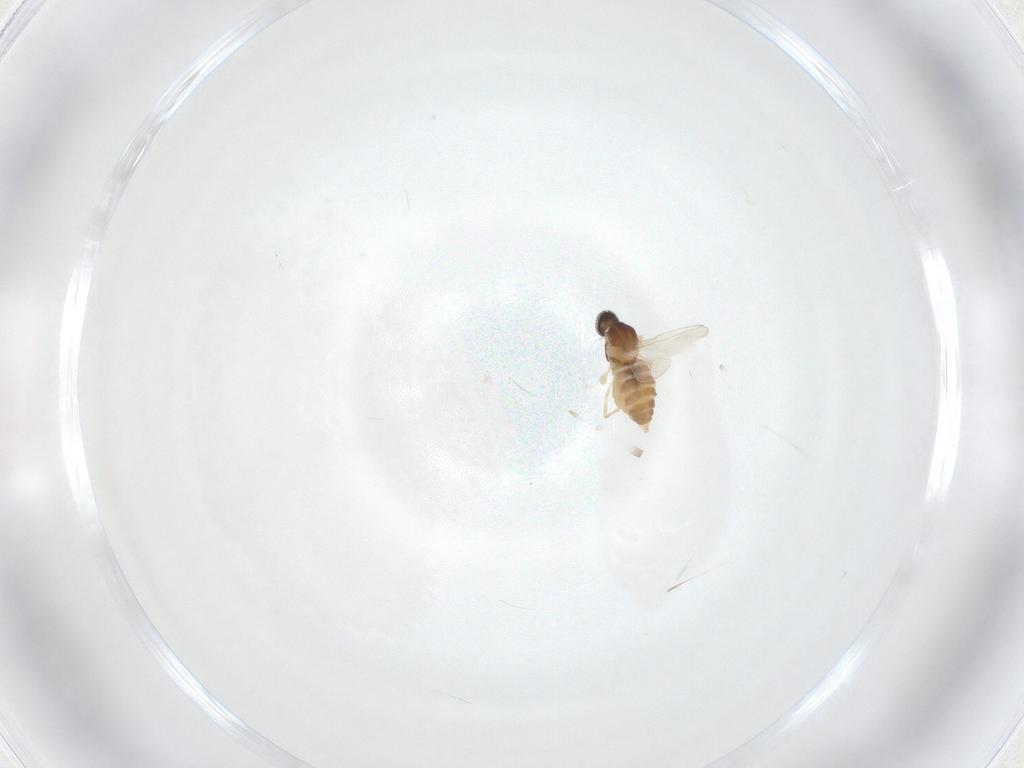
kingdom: Animalia
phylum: Arthropoda
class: Insecta
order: Diptera
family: Cecidomyiidae
